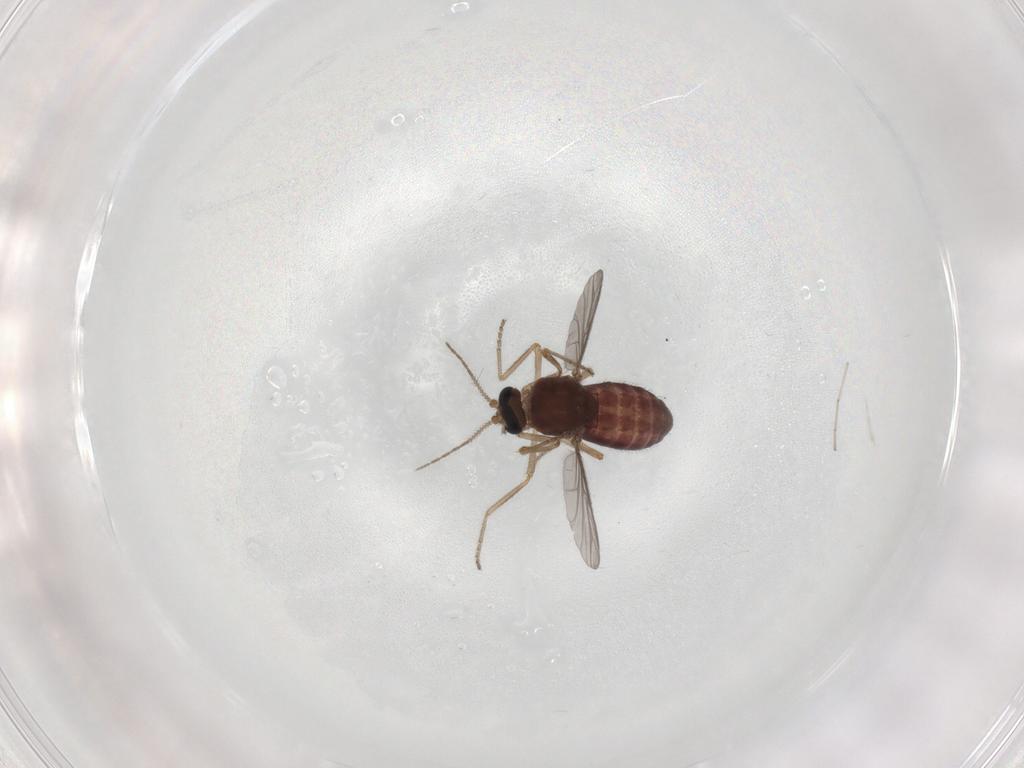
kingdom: Animalia
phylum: Arthropoda
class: Insecta
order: Diptera
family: Ceratopogonidae
